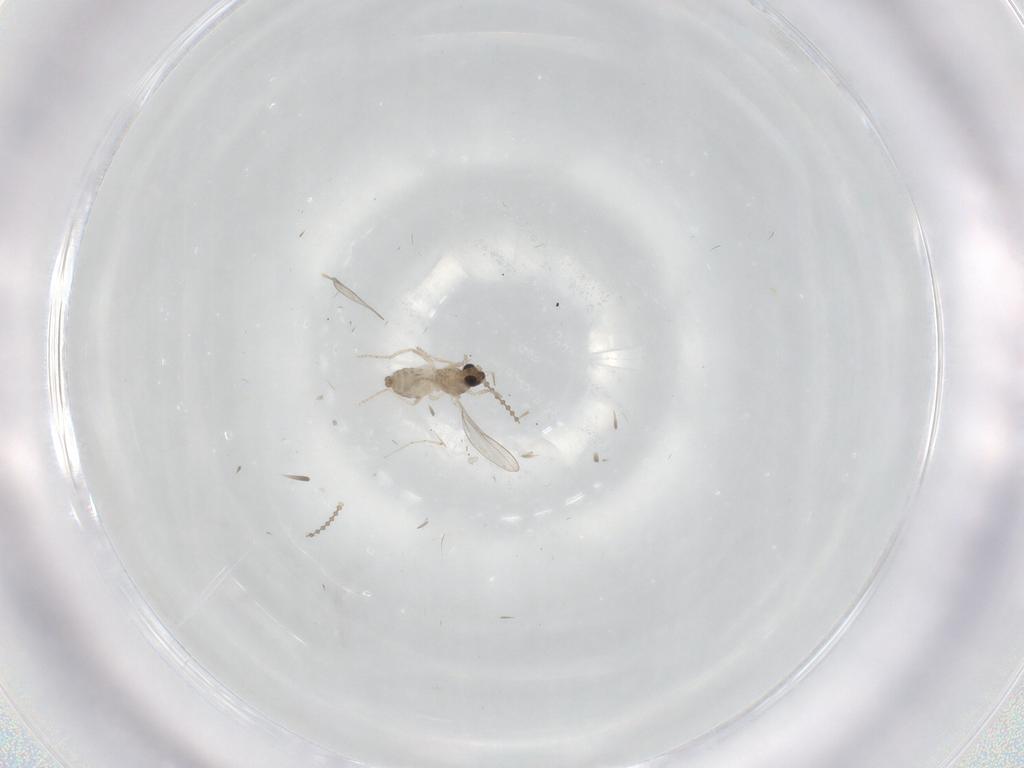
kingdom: Animalia
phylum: Arthropoda
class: Insecta
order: Diptera
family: Cecidomyiidae
